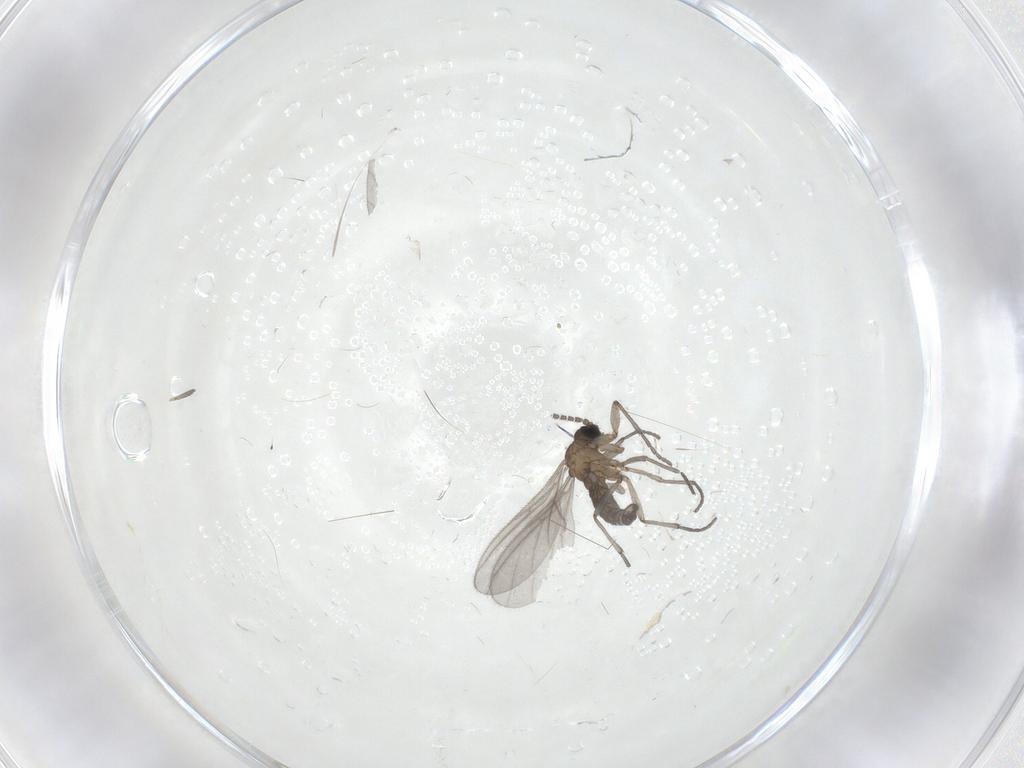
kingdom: Animalia
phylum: Arthropoda
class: Insecta
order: Diptera
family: Sciaridae
